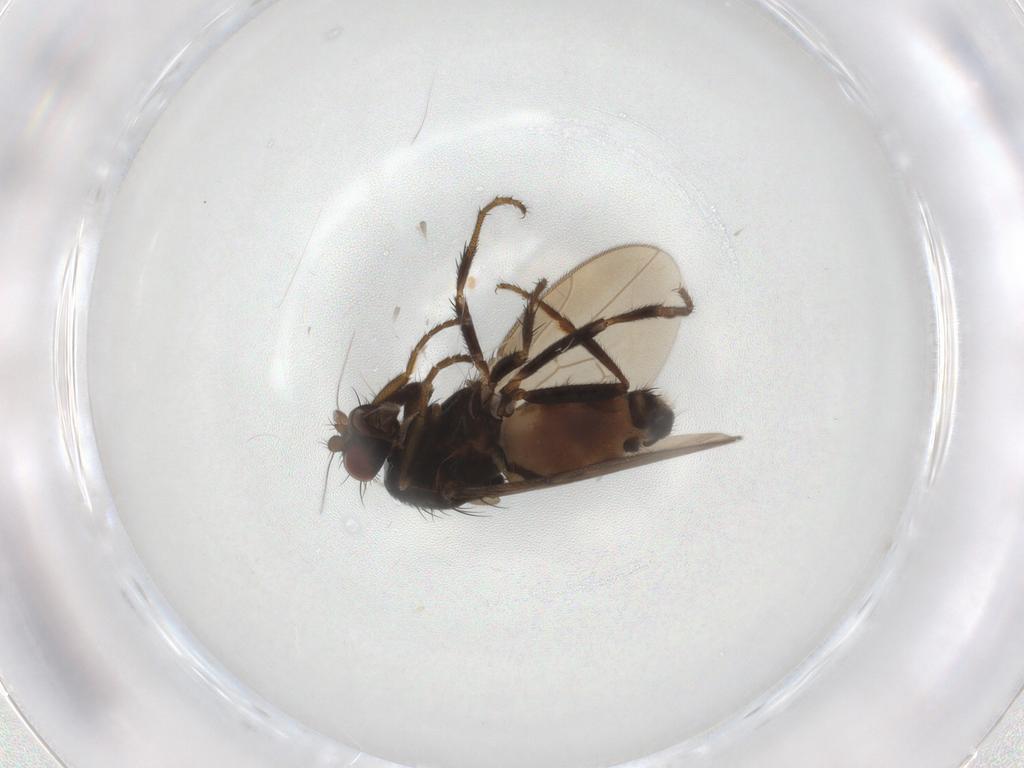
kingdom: Animalia
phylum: Arthropoda
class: Insecta
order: Diptera
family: Sphaeroceridae
